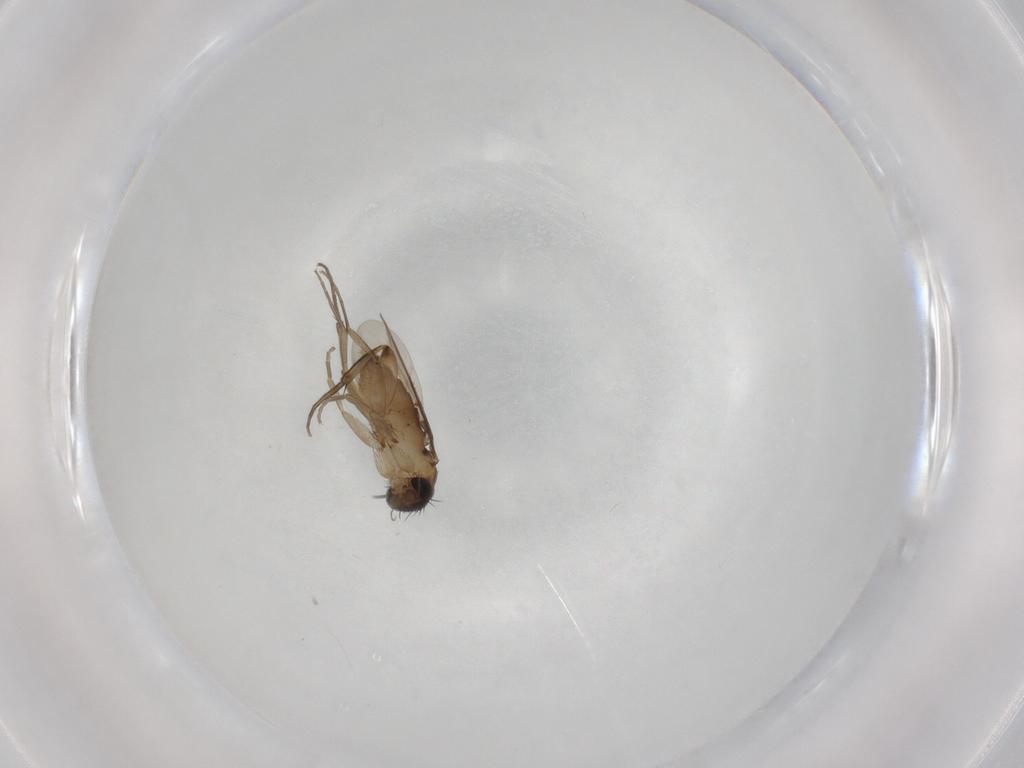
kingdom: Animalia
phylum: Arthropoda
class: Insecta
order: Diptera
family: Phoridae
